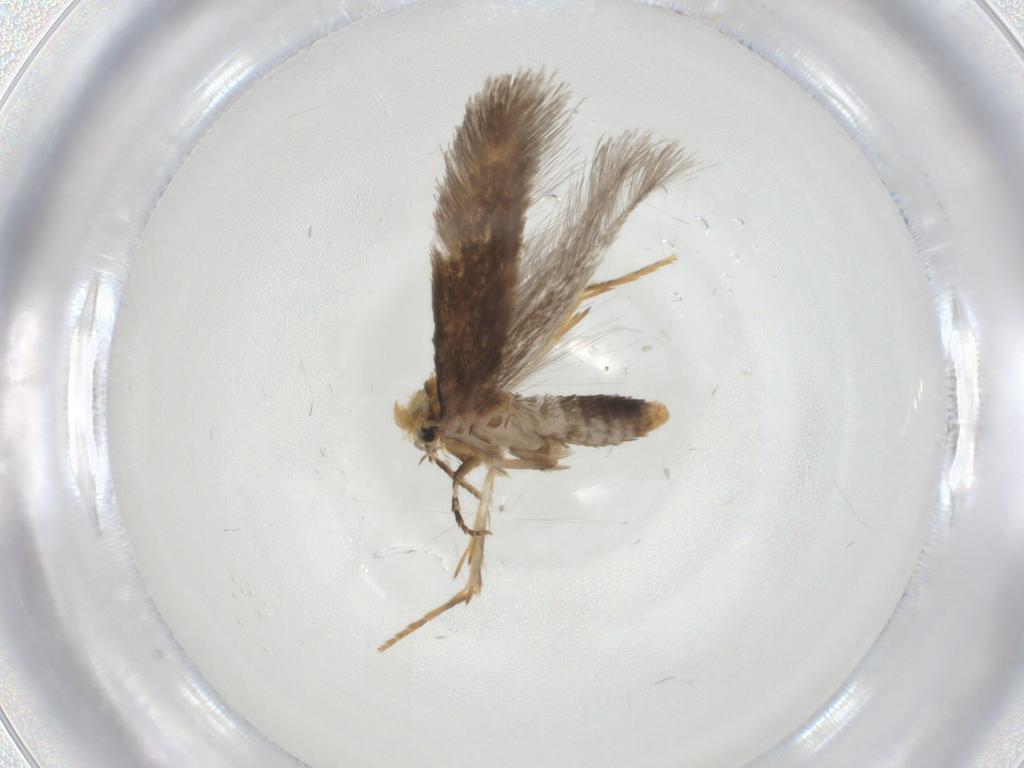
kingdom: Animalia
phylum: Arthropoda
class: Insecta
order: Lepidoptera
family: Nepticulidae
